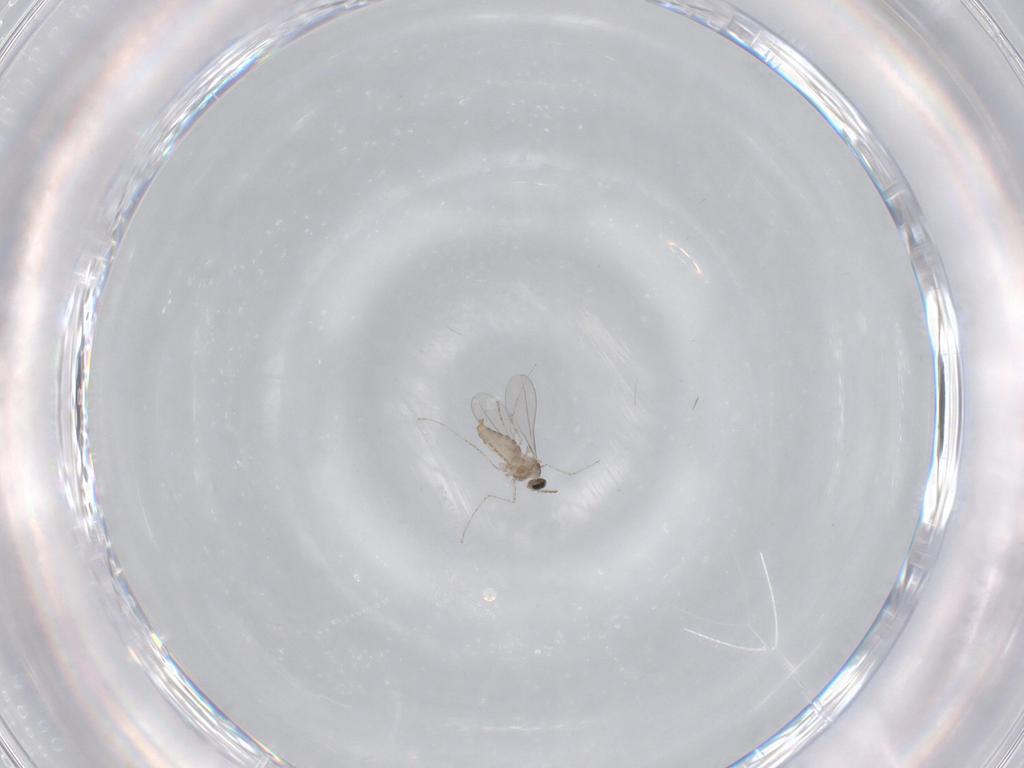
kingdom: Animalia
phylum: Arthropoda
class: Insecta
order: Diptera
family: Cecidomyiidae
